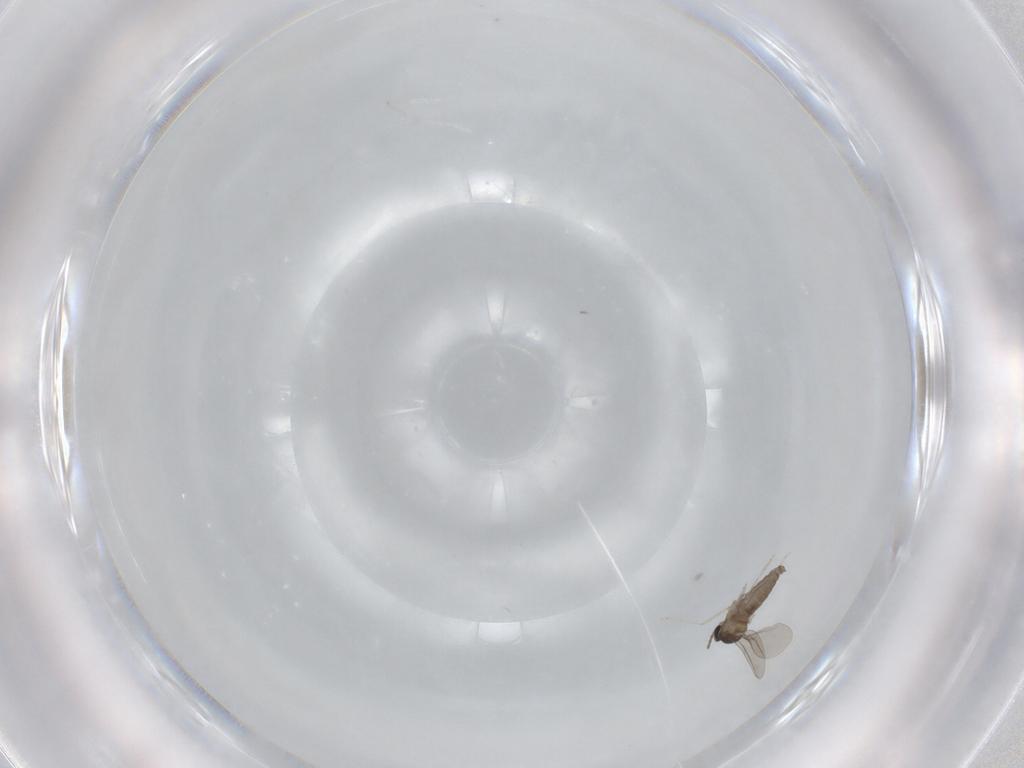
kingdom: Animalia
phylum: Arthropoda
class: Insecta
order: Diptera
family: Cecidomyiidae
